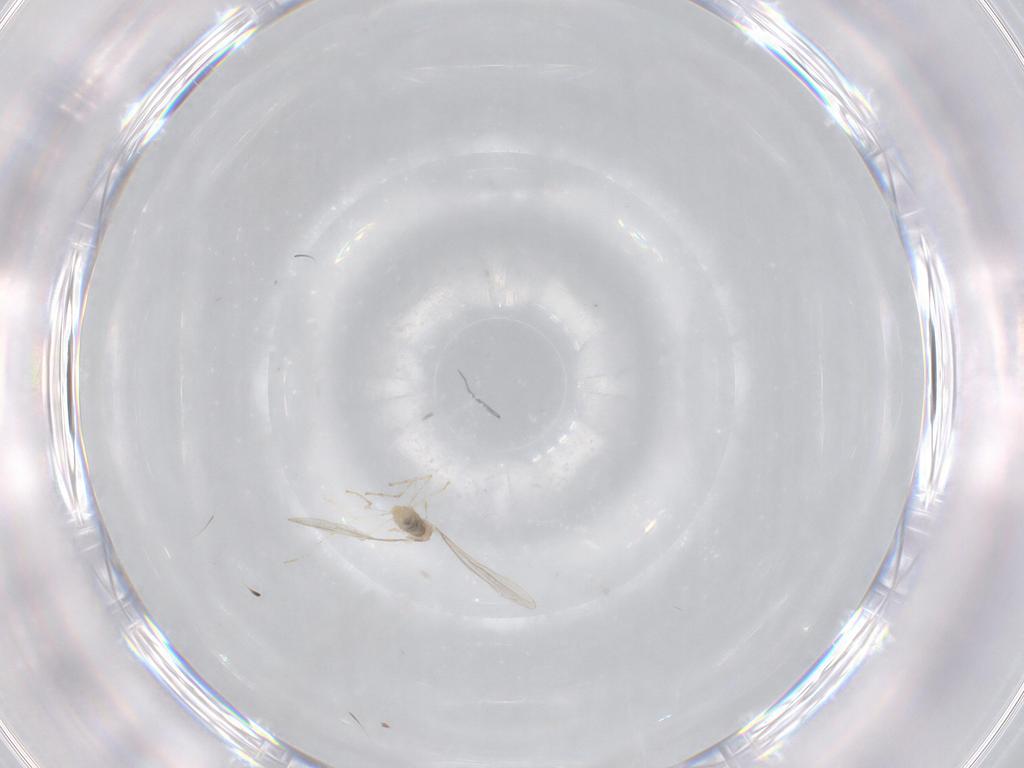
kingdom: Animalia
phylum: Arthropoda
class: Insecta
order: Diptera
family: Cecidomyiidae
